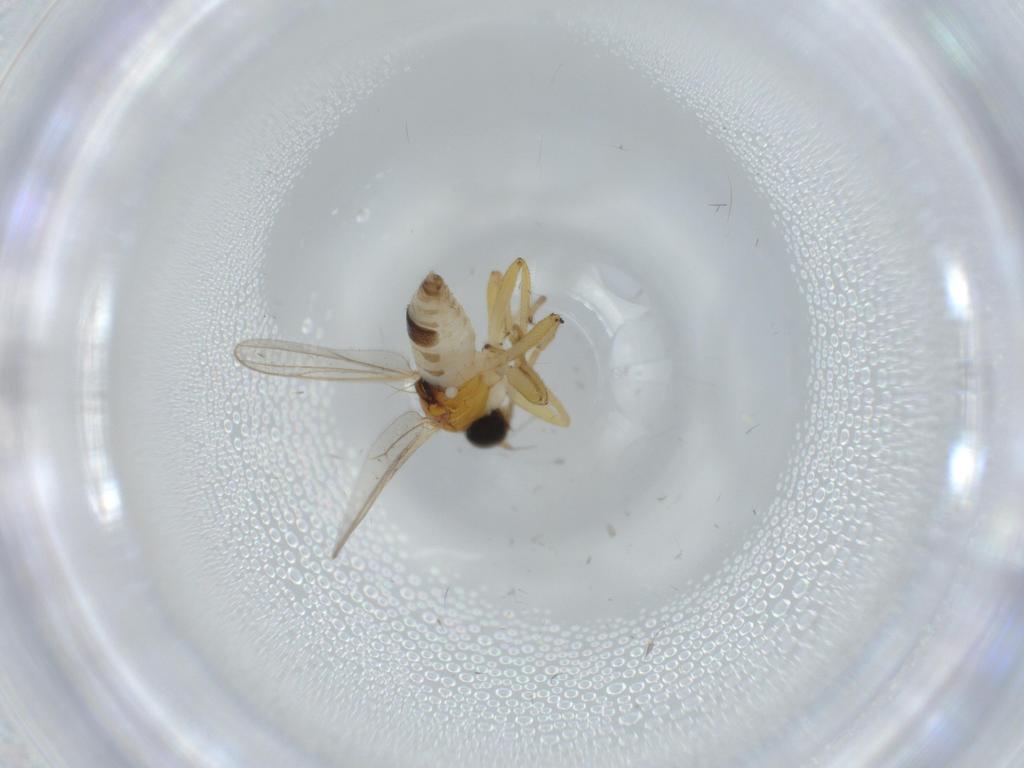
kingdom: Animalia
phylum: Arthropoda
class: Insecta
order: Diptera
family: Hybotidae
